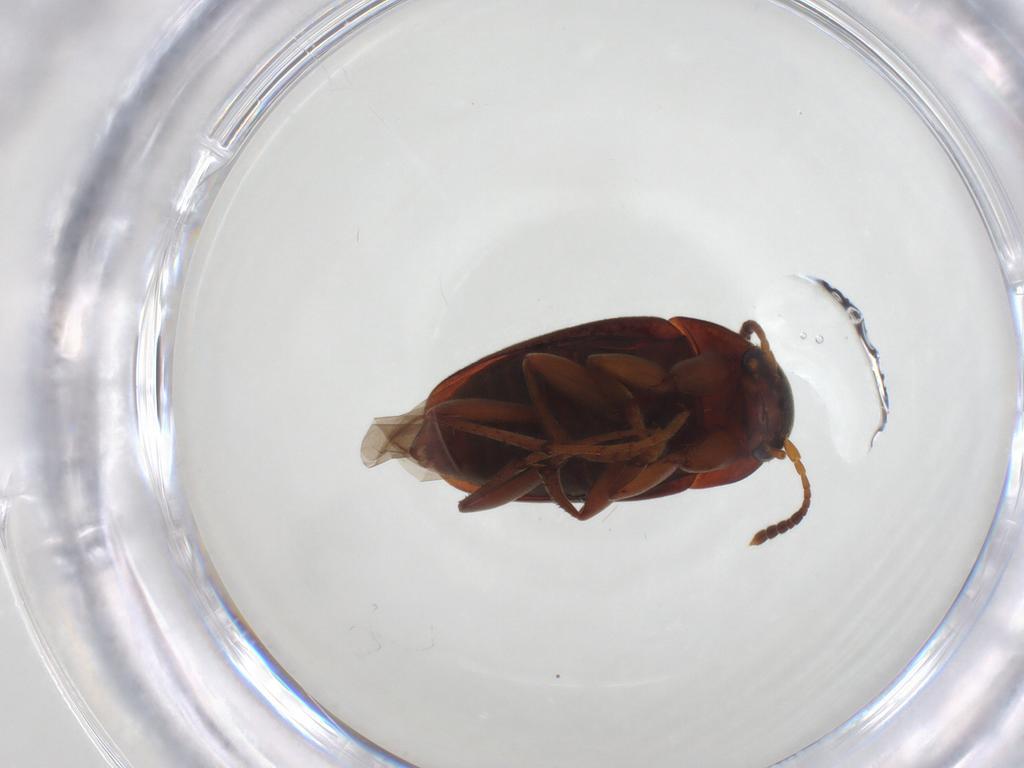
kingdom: Animalia
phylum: Arthropoda
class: Insecta
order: Coleoptera
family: Leiodidae
